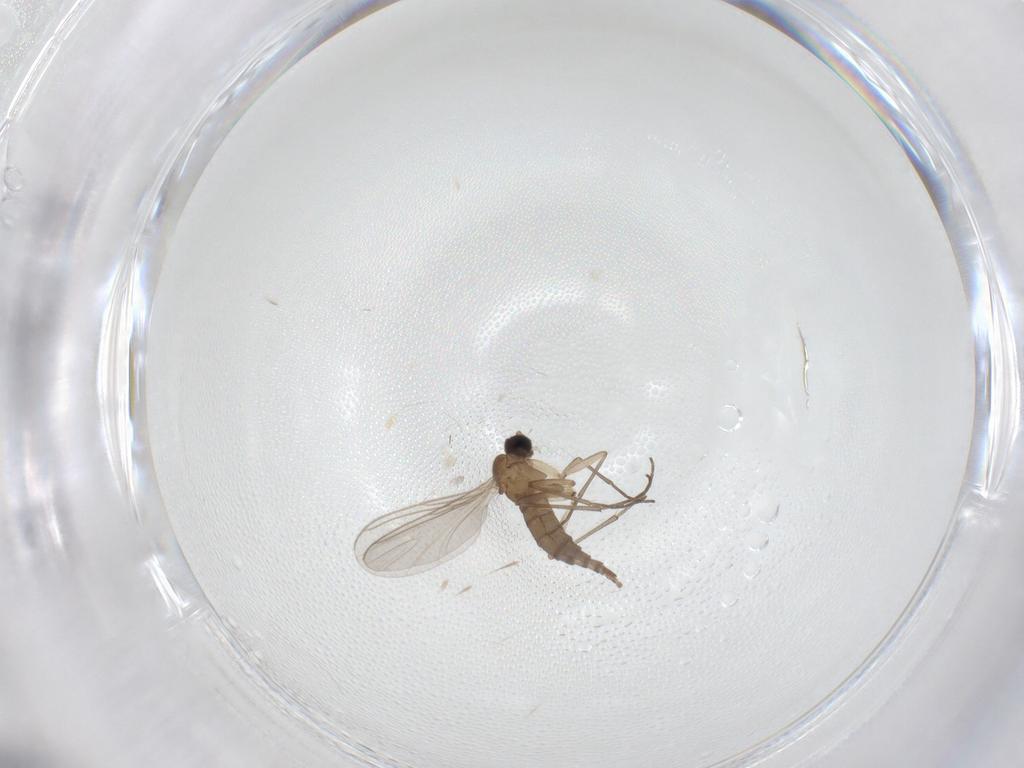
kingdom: Animalia
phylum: Arthropoda
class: Insecta
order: Diptera
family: Sciaridae
